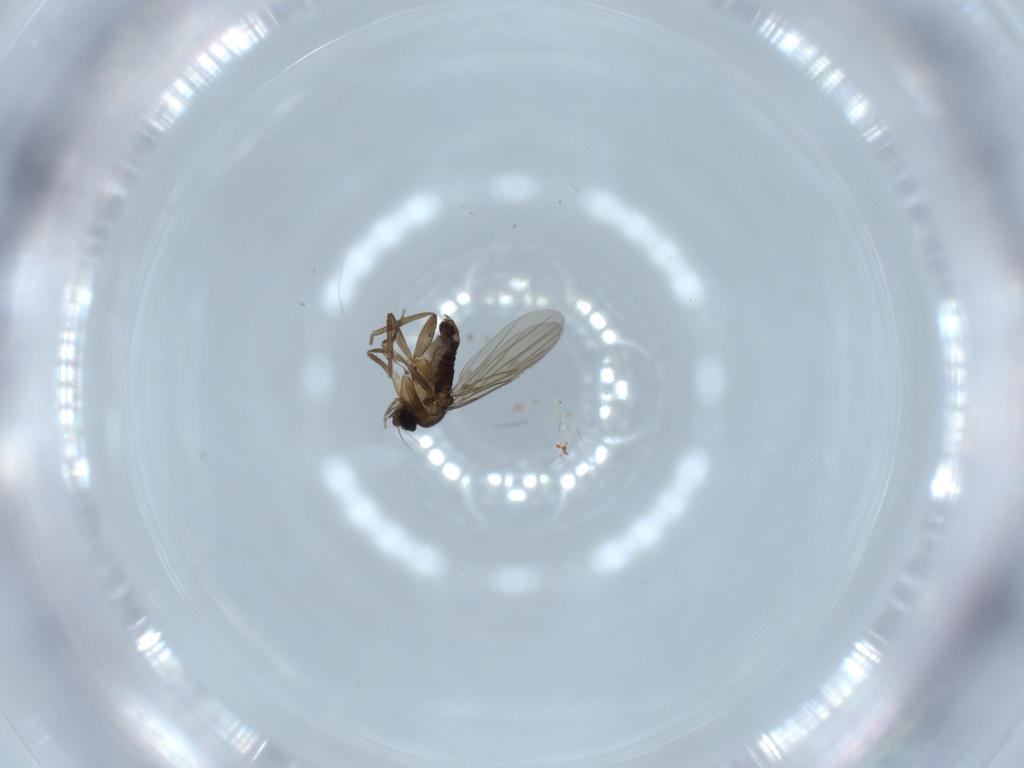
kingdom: Animalia
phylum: Arthropoda
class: Insecta
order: Diptera
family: Phoridae
